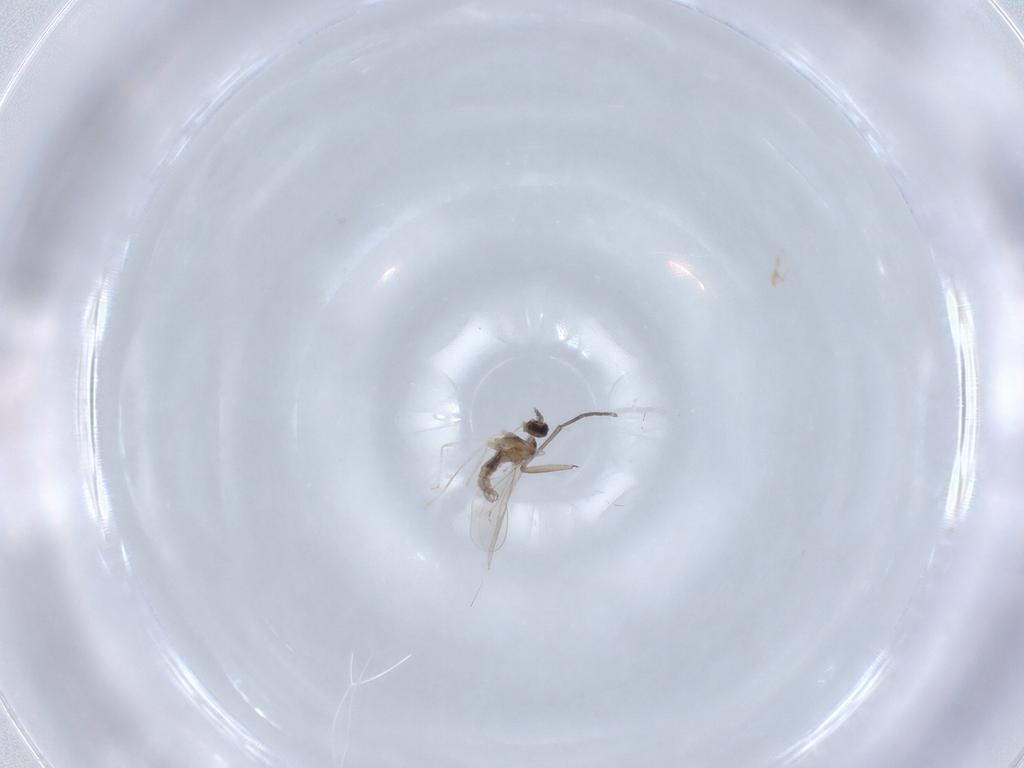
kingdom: Animalia
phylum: Arthropoda
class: Insecta
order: Diptera
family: Cecidomyiidae
